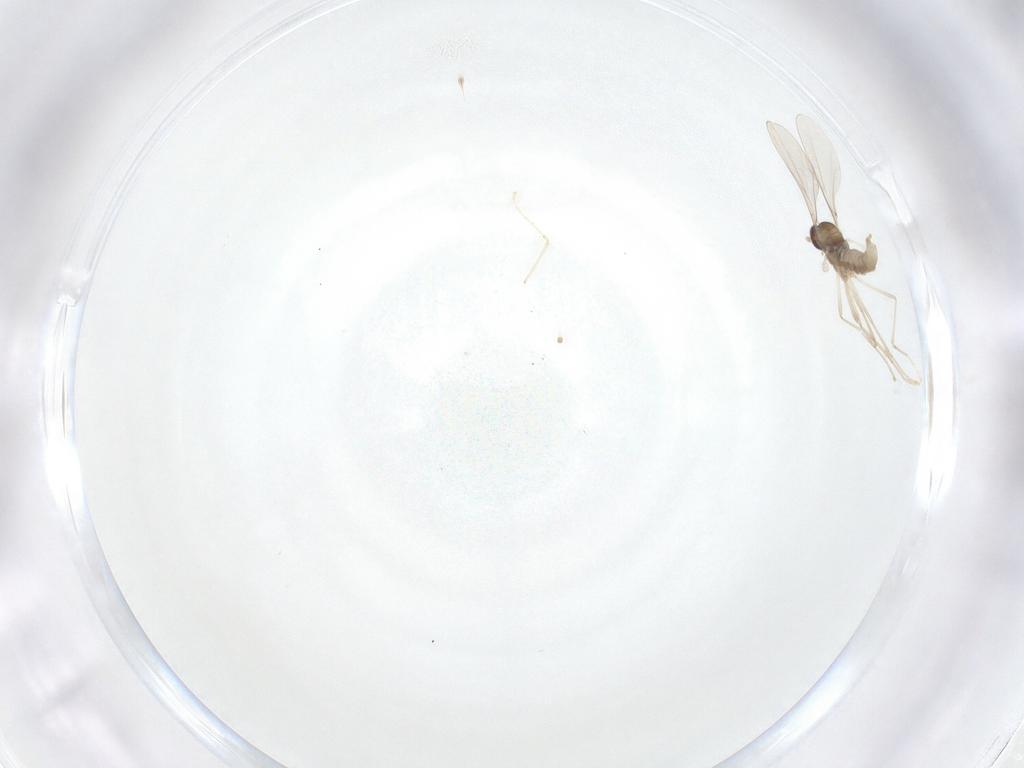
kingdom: Animalia
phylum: Arthropoda
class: Insecta
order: Diptera
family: Cecidomyiidae
